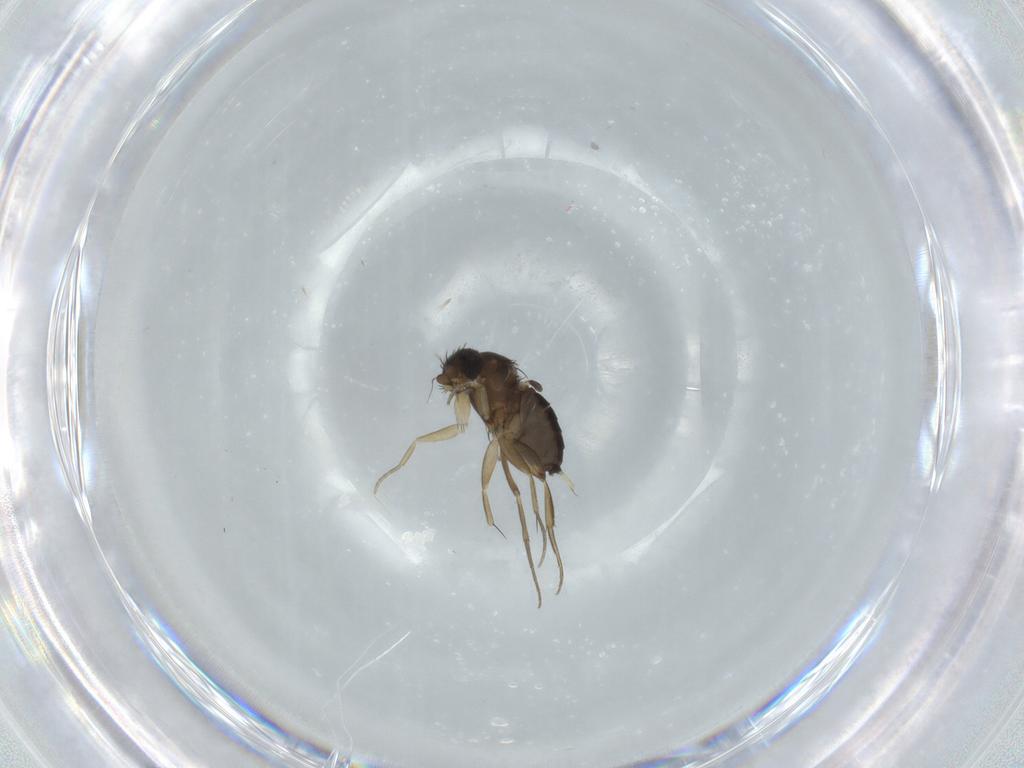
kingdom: Animalia
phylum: Arthropoda
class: Insecta
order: Diptera
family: Phoridae
